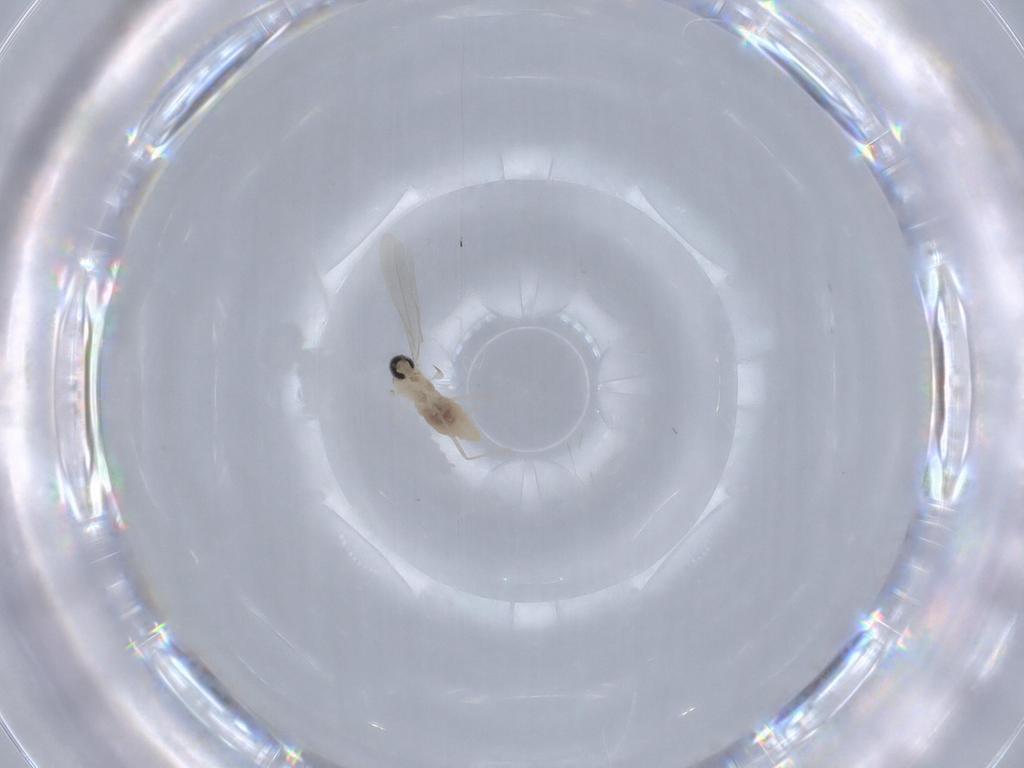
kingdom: Animalia
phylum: Arthropoda
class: Insecta
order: Diptera
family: Cecidomyiidae
